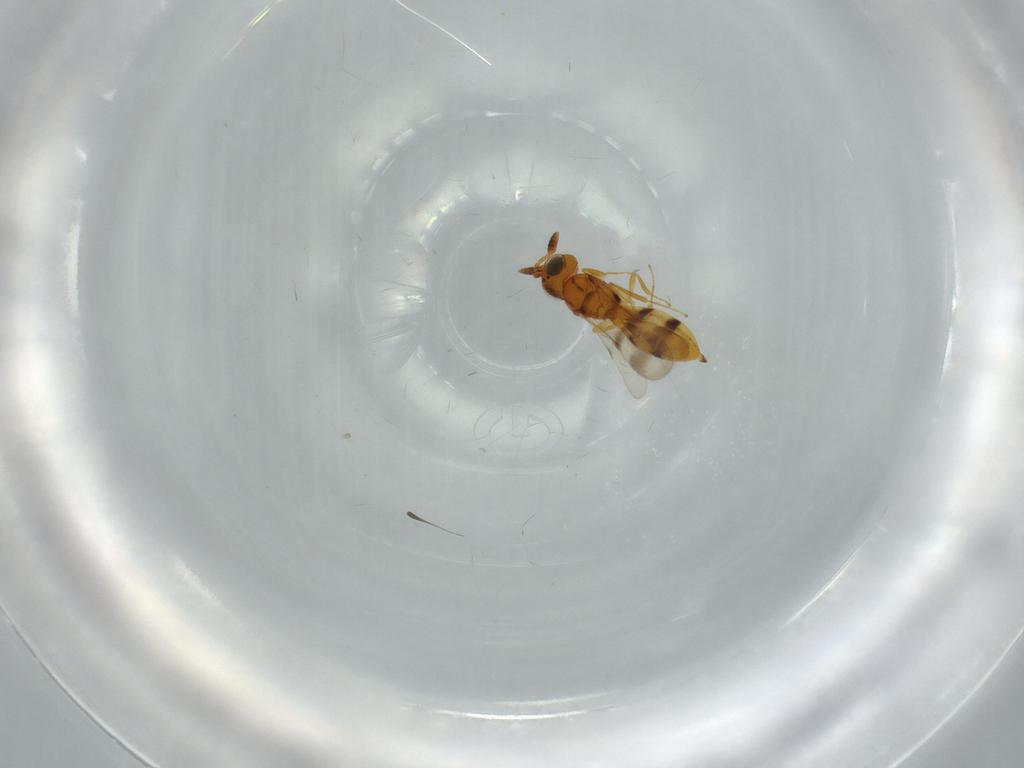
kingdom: Animalia
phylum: Arthropoda
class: Insecta
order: Hymenoptera
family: Scelionidae
